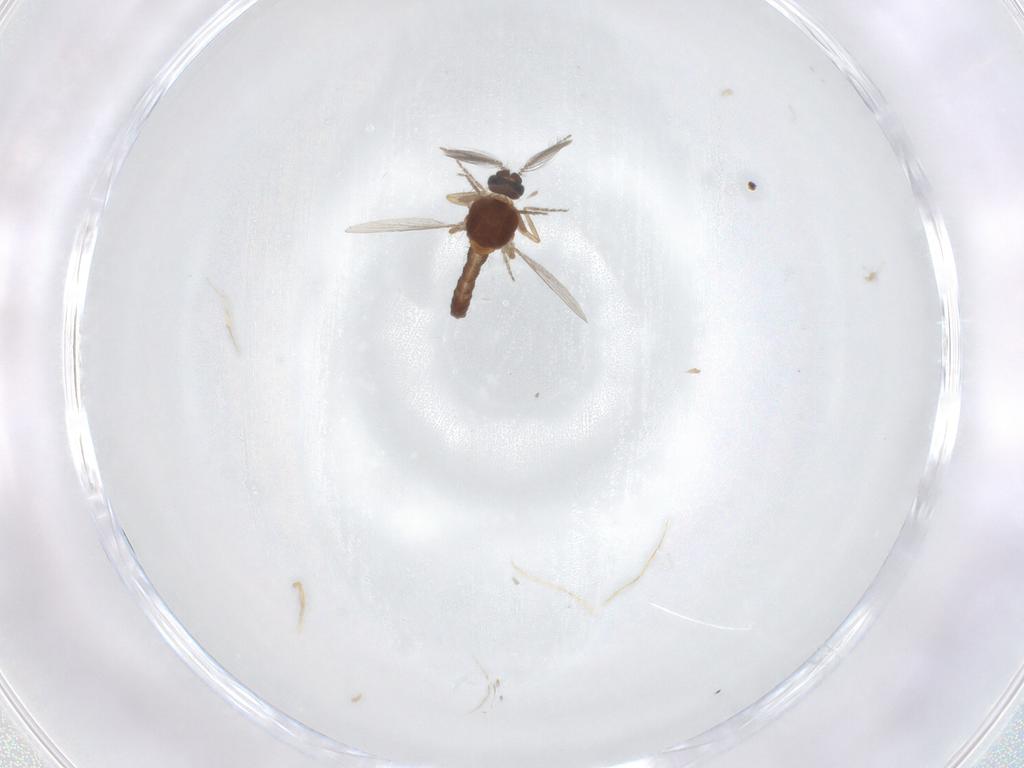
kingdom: Animalia
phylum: Arthropoda
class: Insecta
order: Diptera
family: Ceratopogonidae
